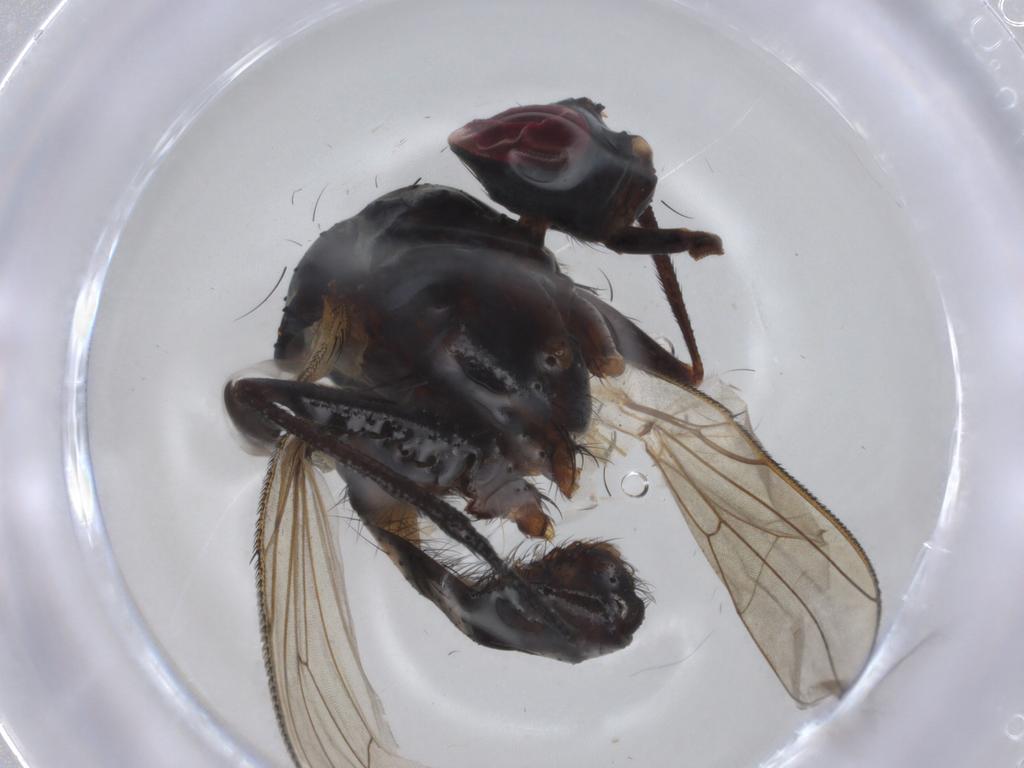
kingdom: Animalia
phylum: Arthropoda
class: Insecta
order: Diptera
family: Anthomyiidae
